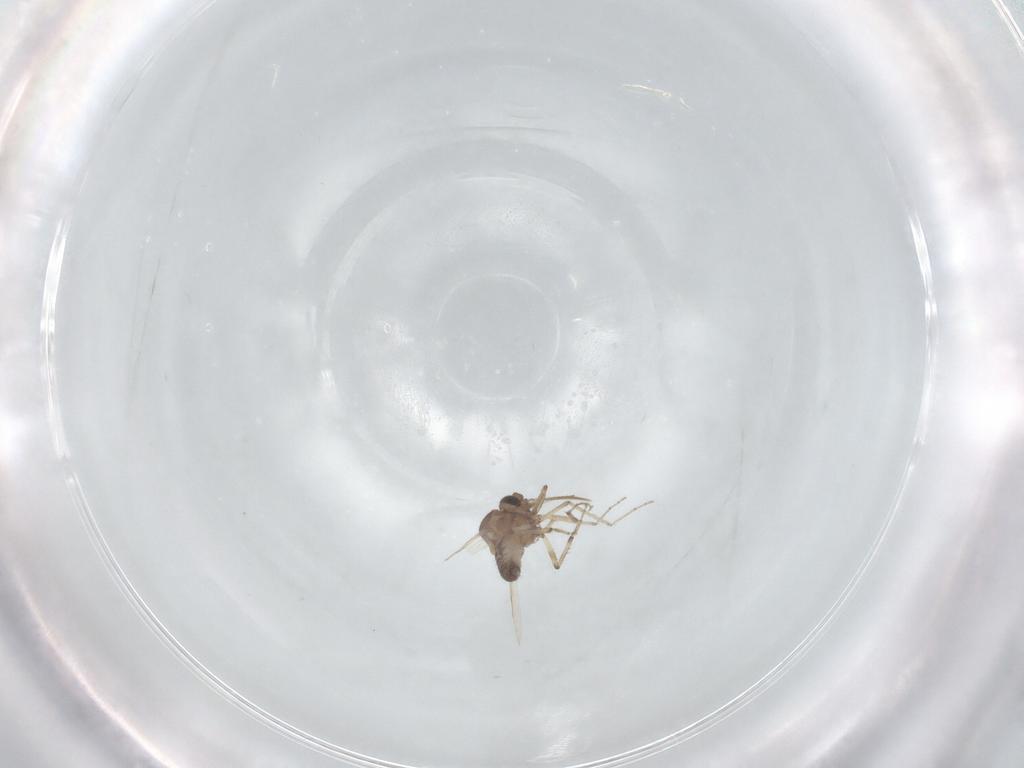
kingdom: Animalia
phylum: Arthropoda
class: Insecta
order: Diptera
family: Ceratopogonidae
